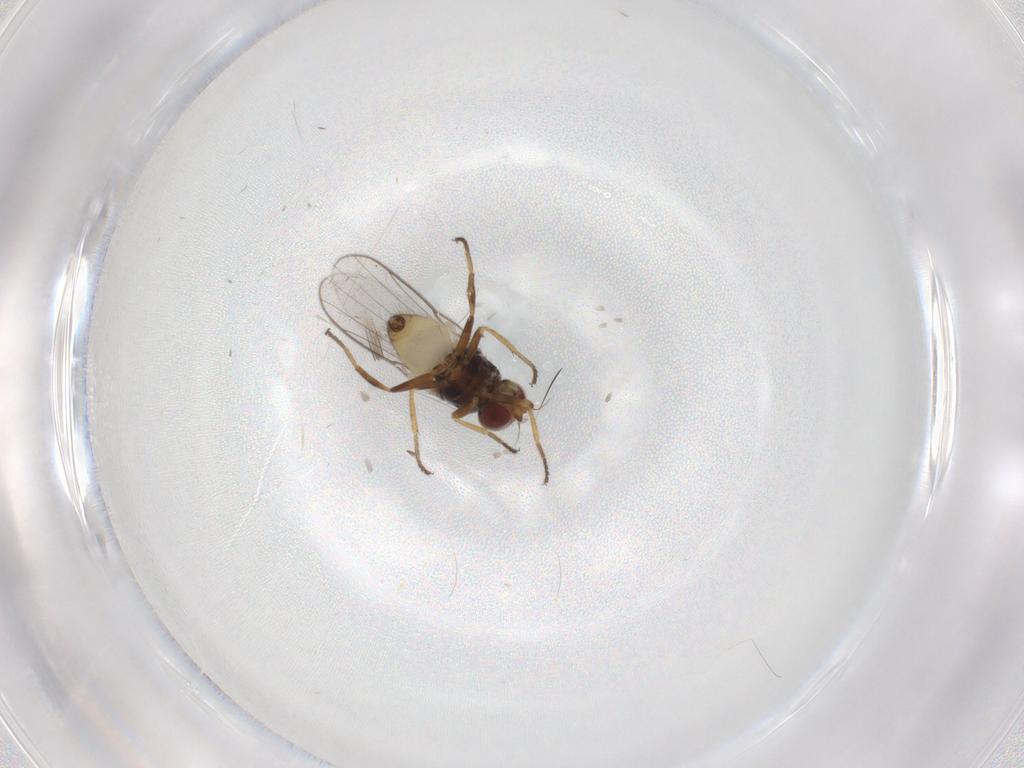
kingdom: Animalia
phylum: Arthropoda
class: Insecta
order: Diptera
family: Chloropidae
